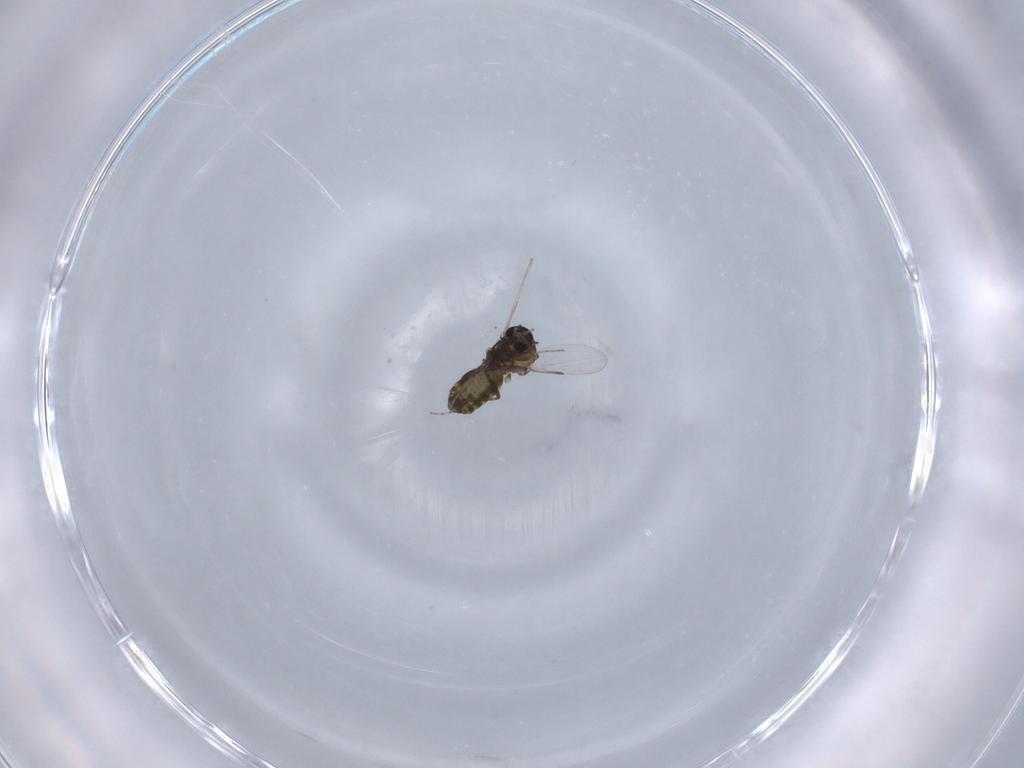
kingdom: Animalia
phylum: Arthropoda
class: Insecta
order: Diptera
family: Ceratopogonidae
